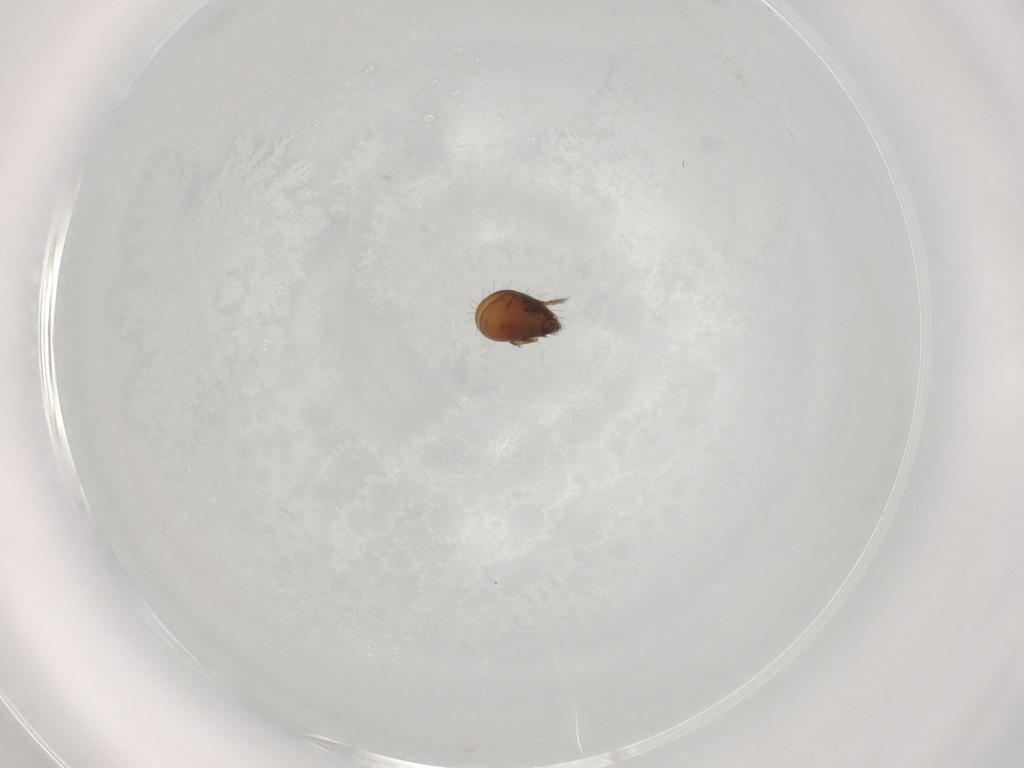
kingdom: Animalia
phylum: Arthropoda
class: Arachnida
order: Sarcoptiformes
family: Humerobatidae
